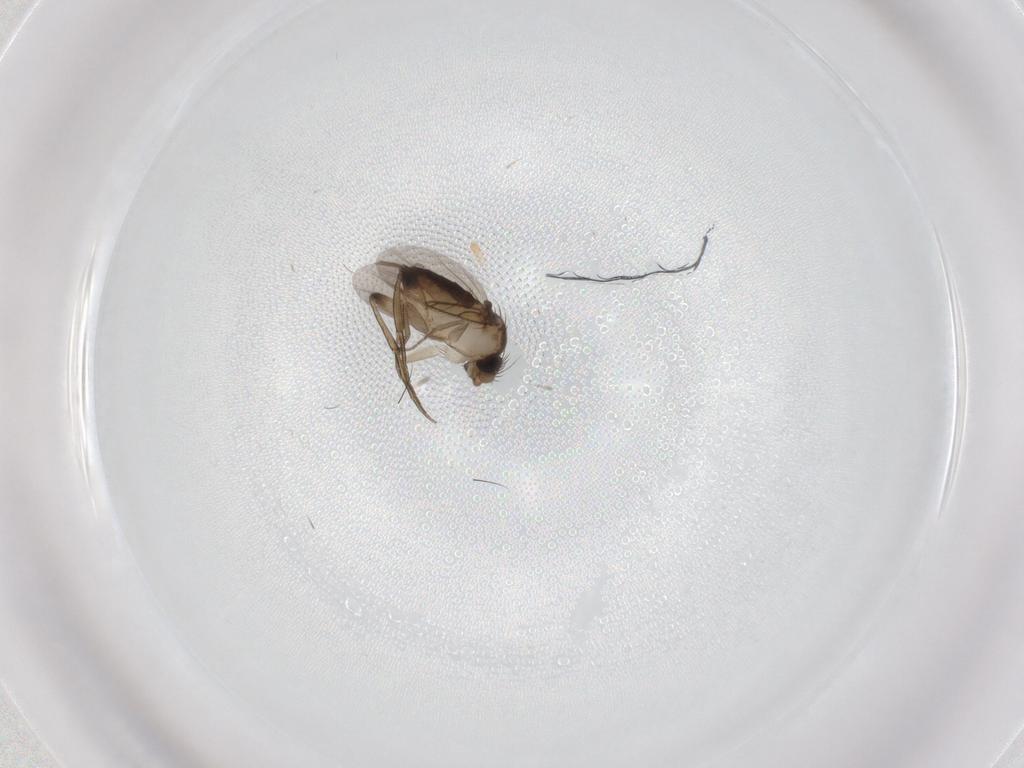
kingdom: Animalia
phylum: Arthropoda
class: Insecta
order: Diptera
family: Phoridae
